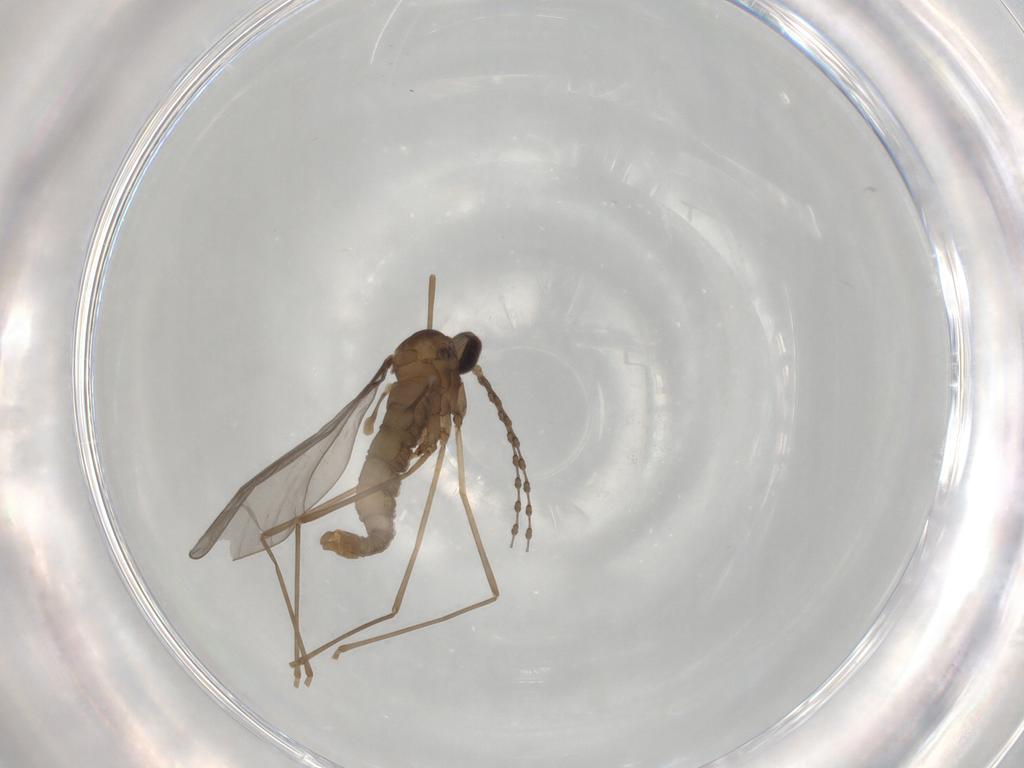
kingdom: Animalia
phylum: Arthropoda
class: Insecta
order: Diptera
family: Cecidomyiidae
